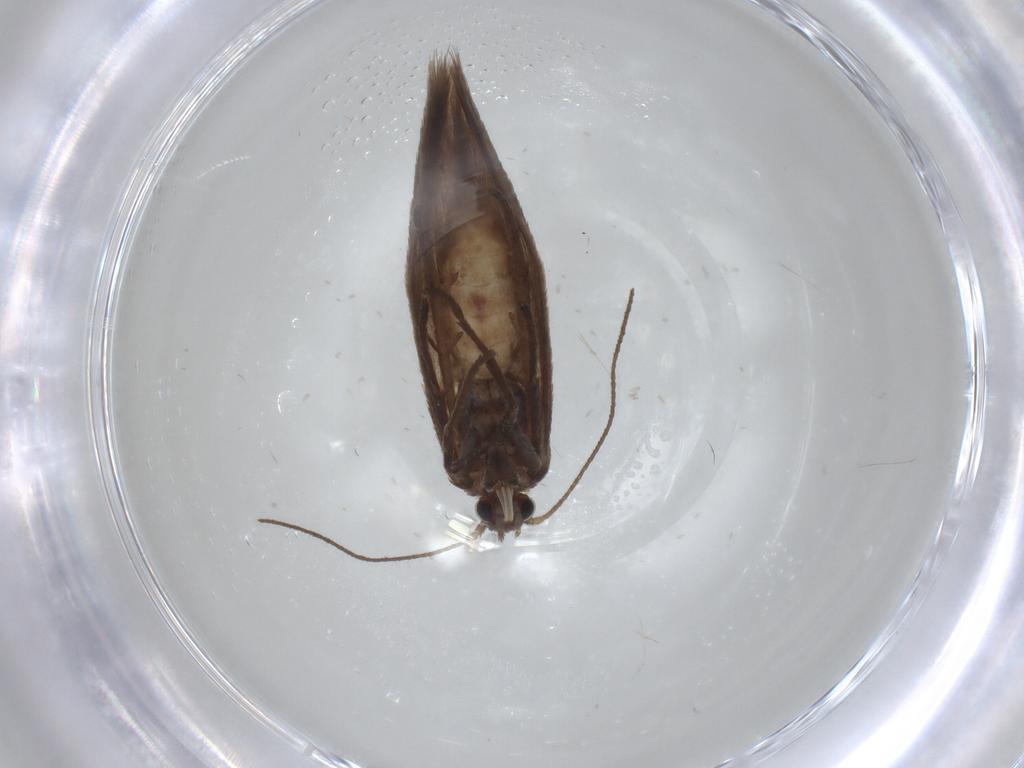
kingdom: Animalia
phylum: Arthropoda
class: Insecta
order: Lepidoptera
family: Limacodidae
